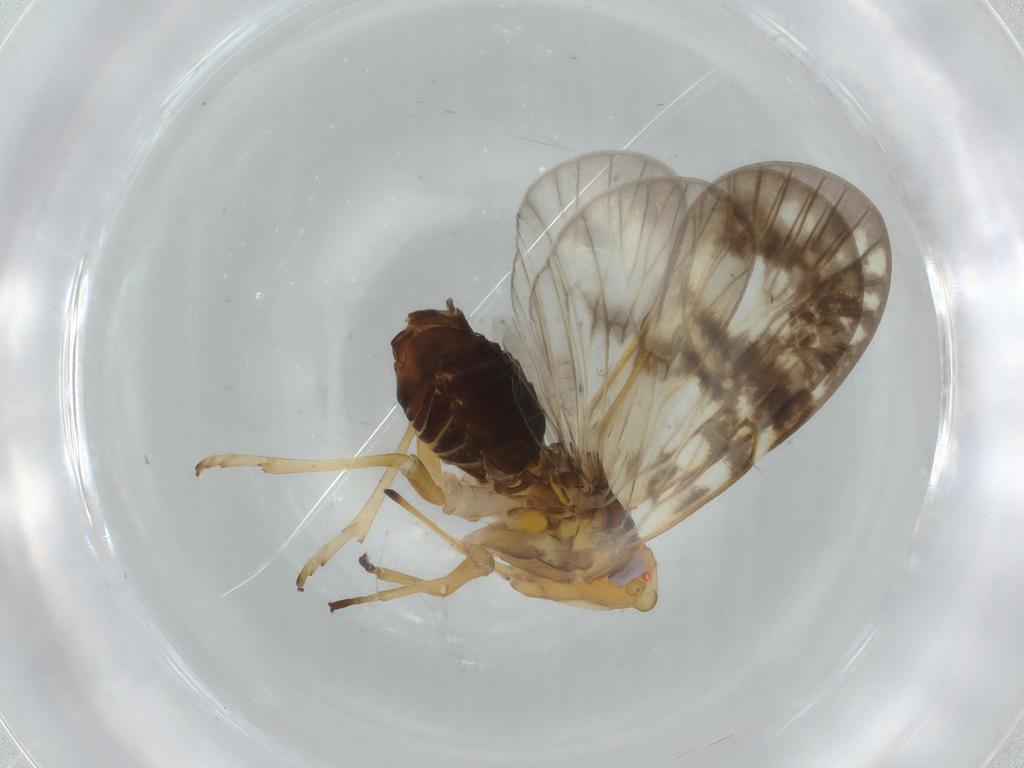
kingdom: Animalia
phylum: Arthropoda
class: Insecta
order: Hemiptera
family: Cixiidae
